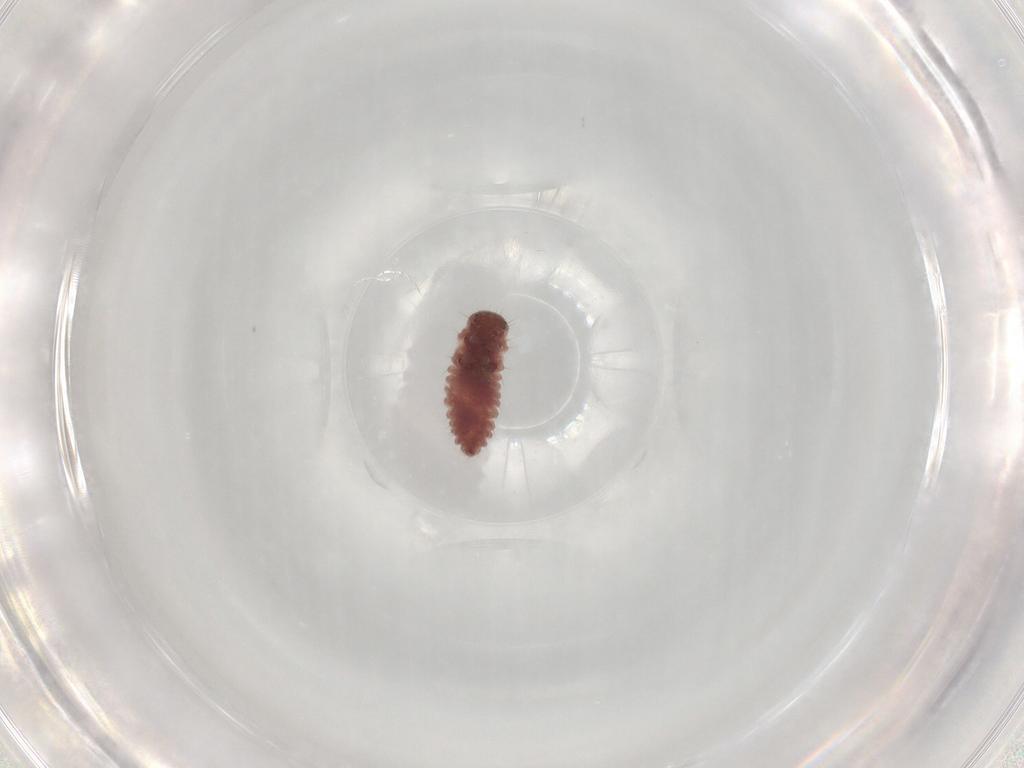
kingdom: Animalia
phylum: Arthropoda
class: Insecta
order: Coleoptera
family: Coccinellidae
